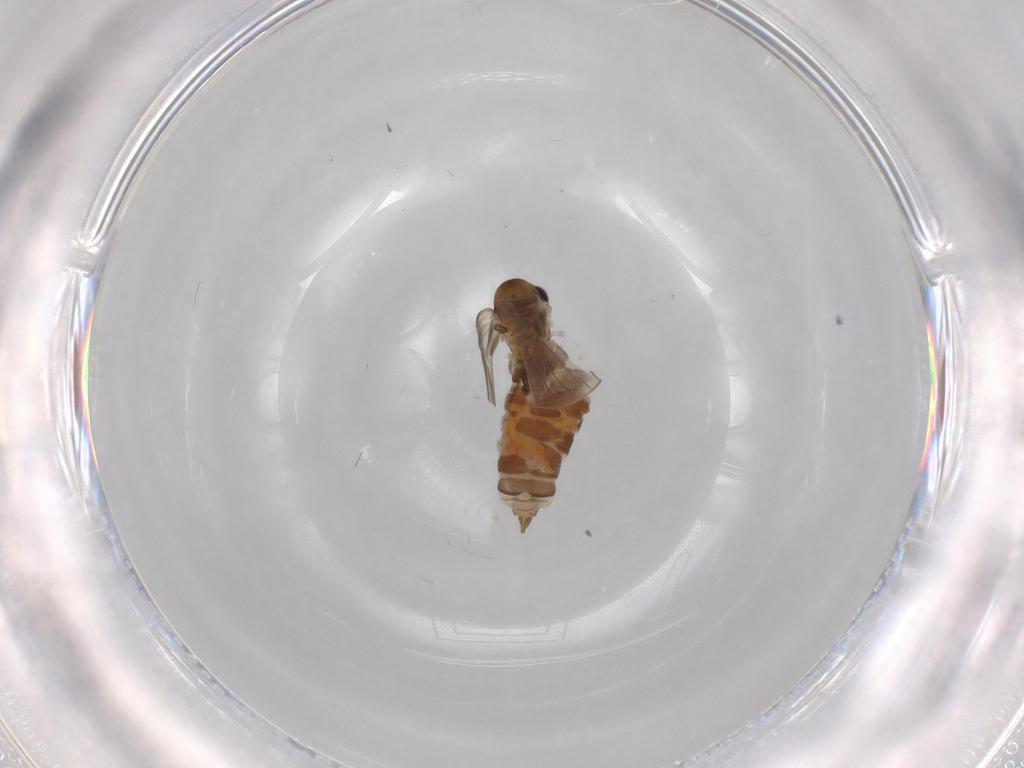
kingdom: Animalia
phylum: Arthropoda
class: Insecta
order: Diptera
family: Psychodidae
